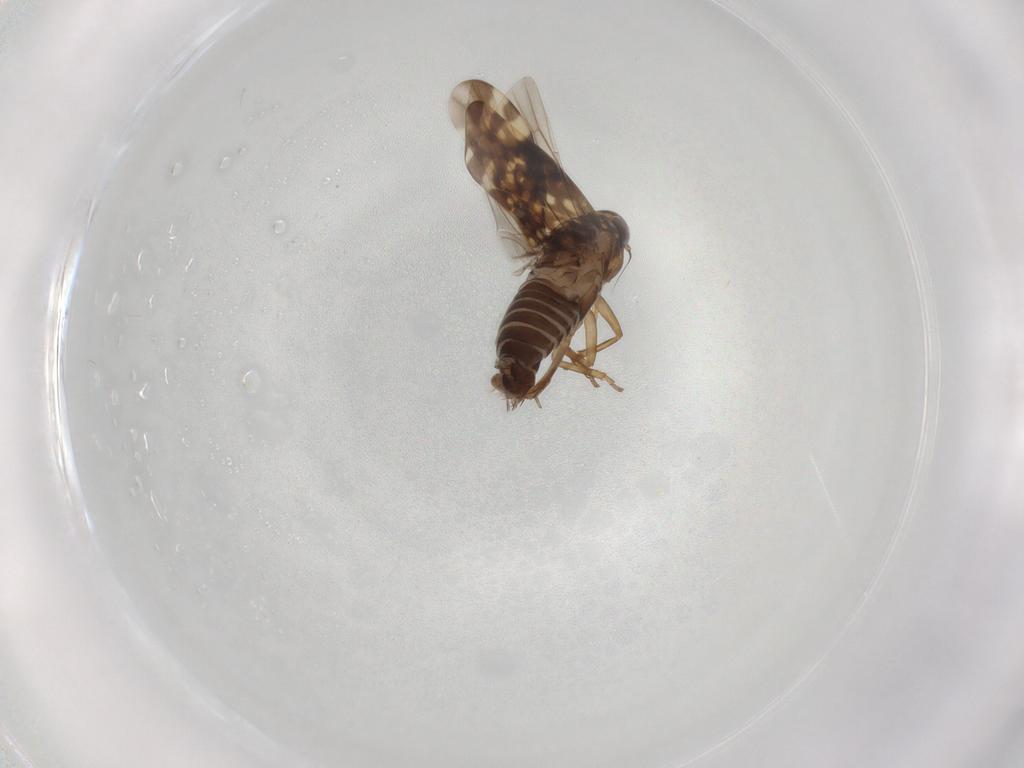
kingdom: Animalia
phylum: Arthropoda
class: Insecta
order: Hemiptera
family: Cicadellidae
